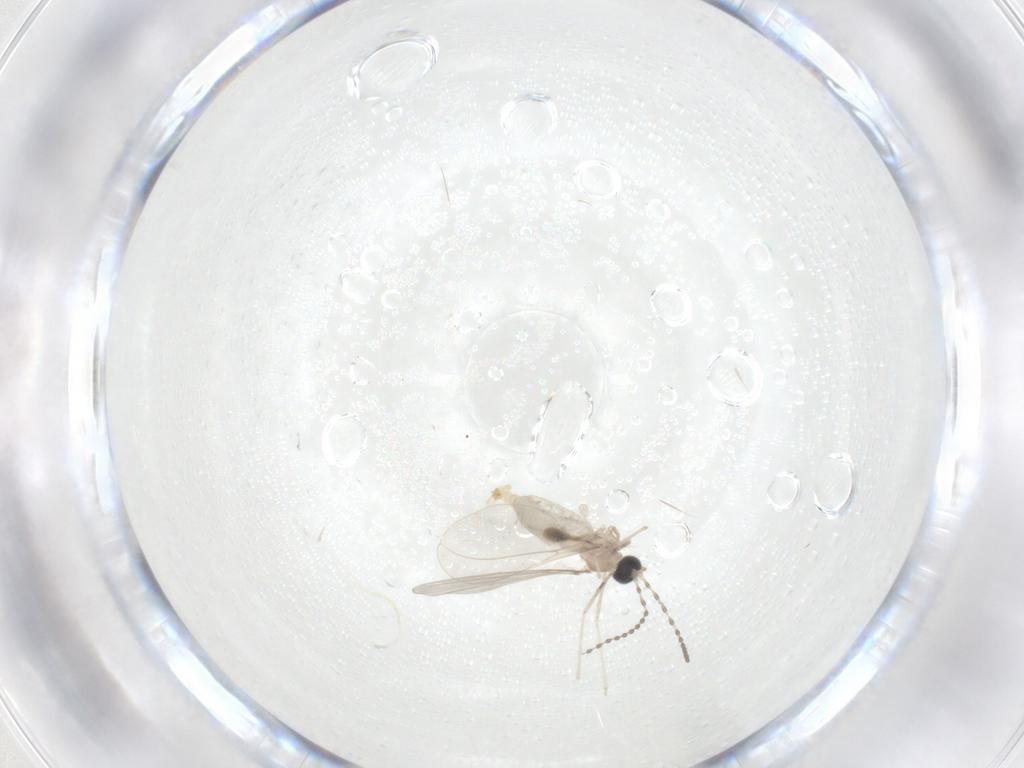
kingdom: Animalia
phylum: Arthropoda
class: Insecta
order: Diptera
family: Cecidomyiidae
